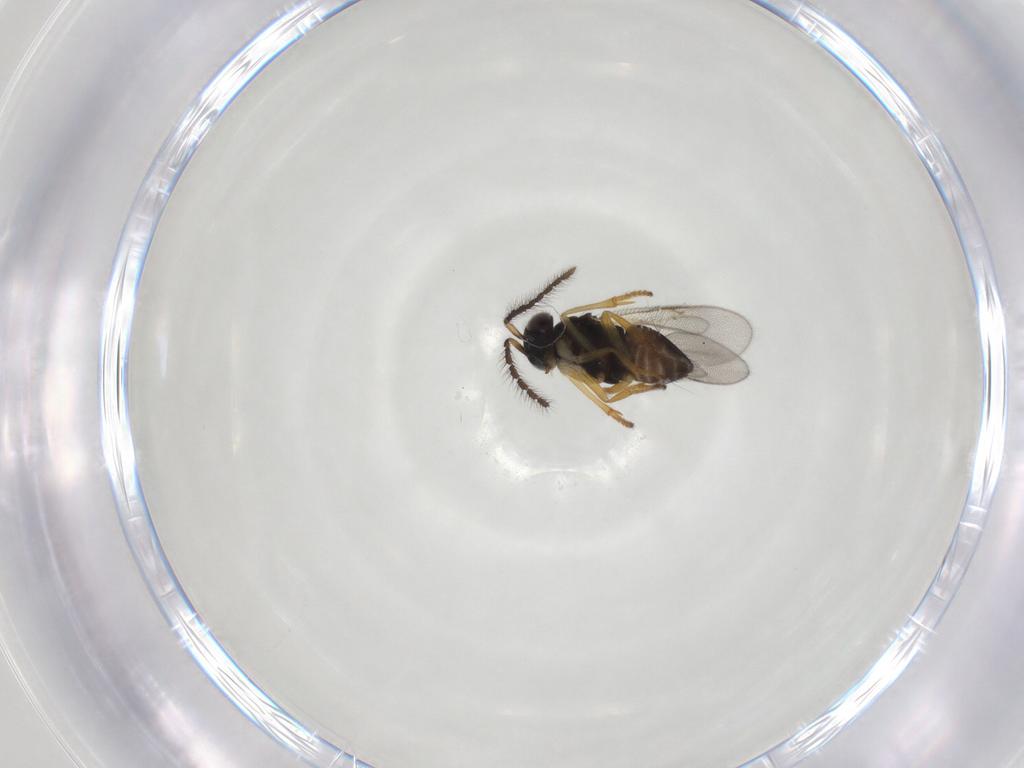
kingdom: Animalia
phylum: Arthropoda
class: Insecta
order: Hymenoptera
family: Encyrtidae
